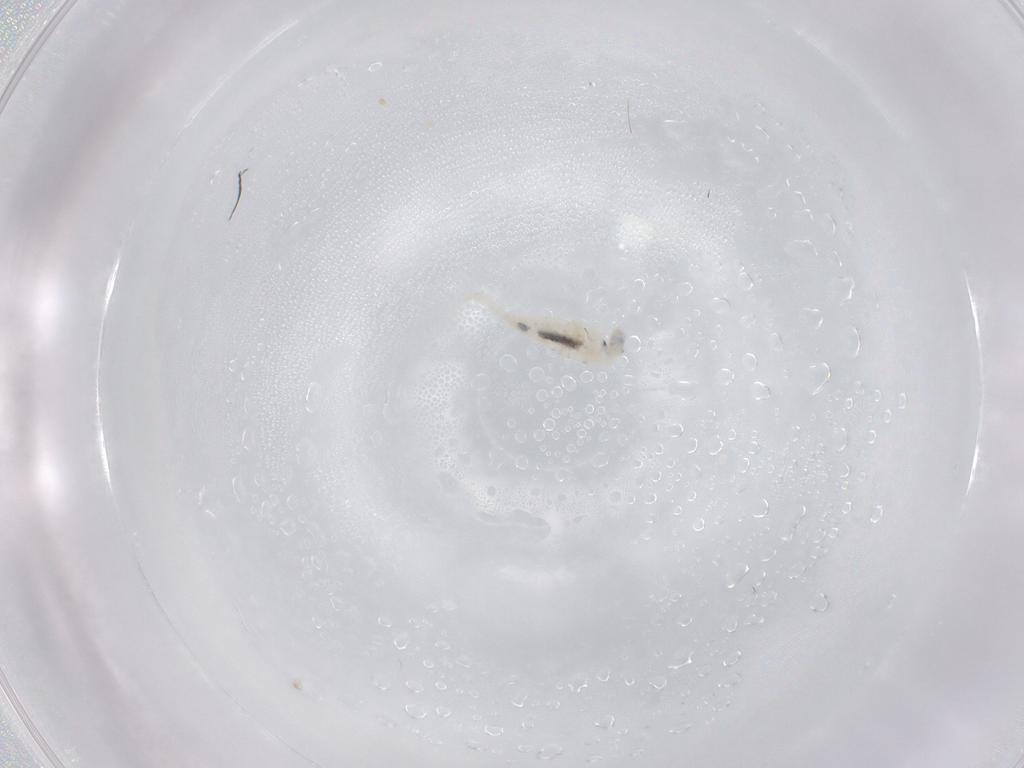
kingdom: Animalia
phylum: Arthropoda
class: Collembola
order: Entomobryomorpha
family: Entomobryidae
